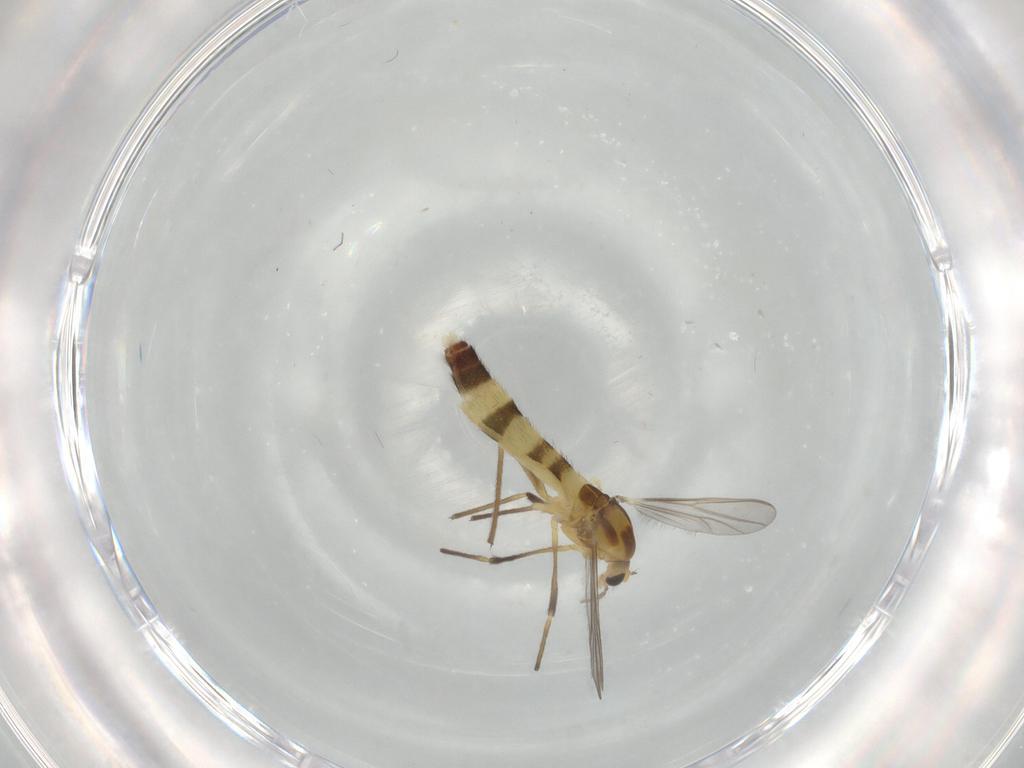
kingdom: Animalia
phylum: Arthropoda
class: Insecta
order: Diptera
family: Chironomidae
